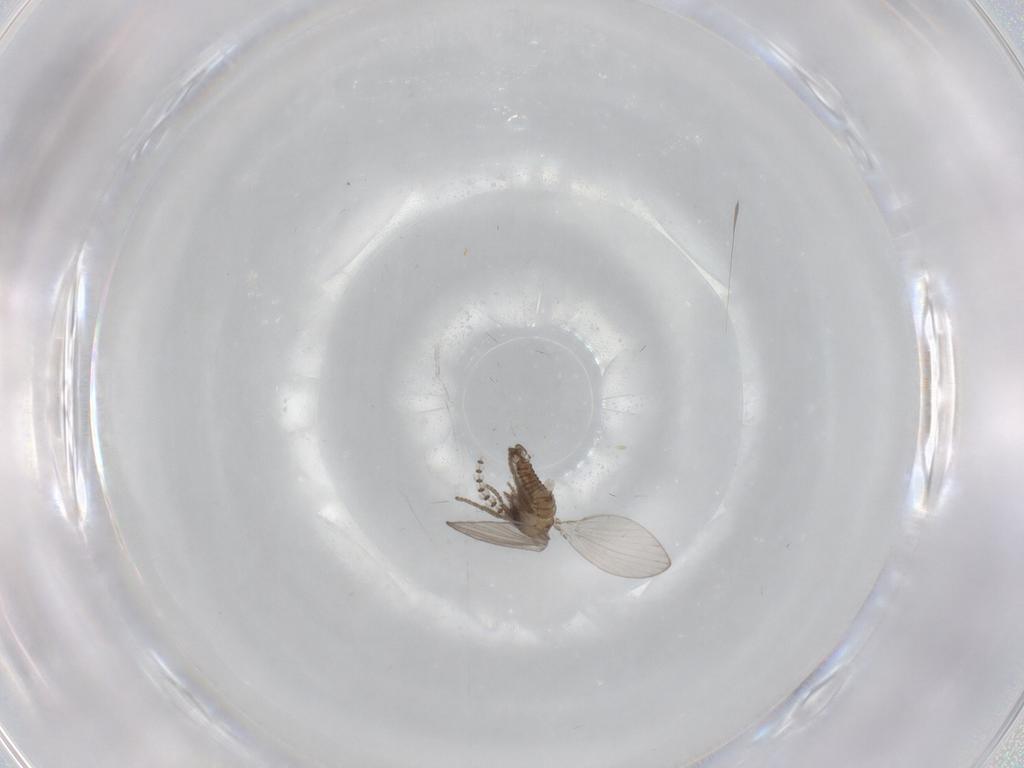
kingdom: Animalia
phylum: Arthropoda
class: Insecta
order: Diptera
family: Psychodidae
